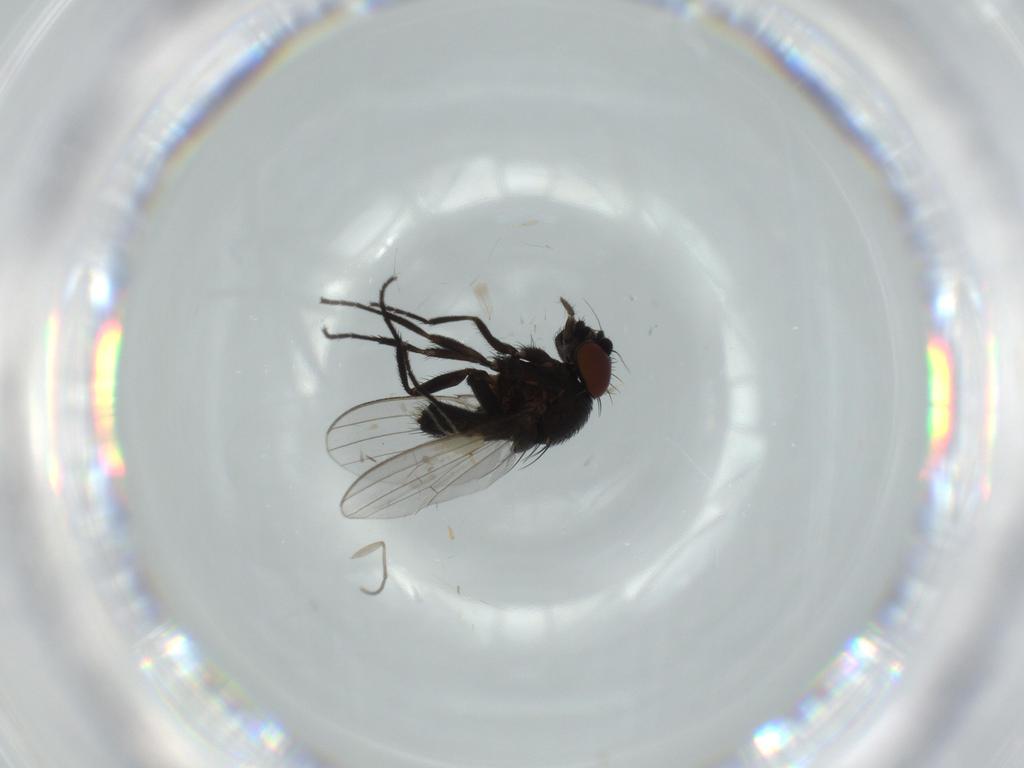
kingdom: Animalia
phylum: Arthropoda
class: Insecta
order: Diptera
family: Milichiidae
